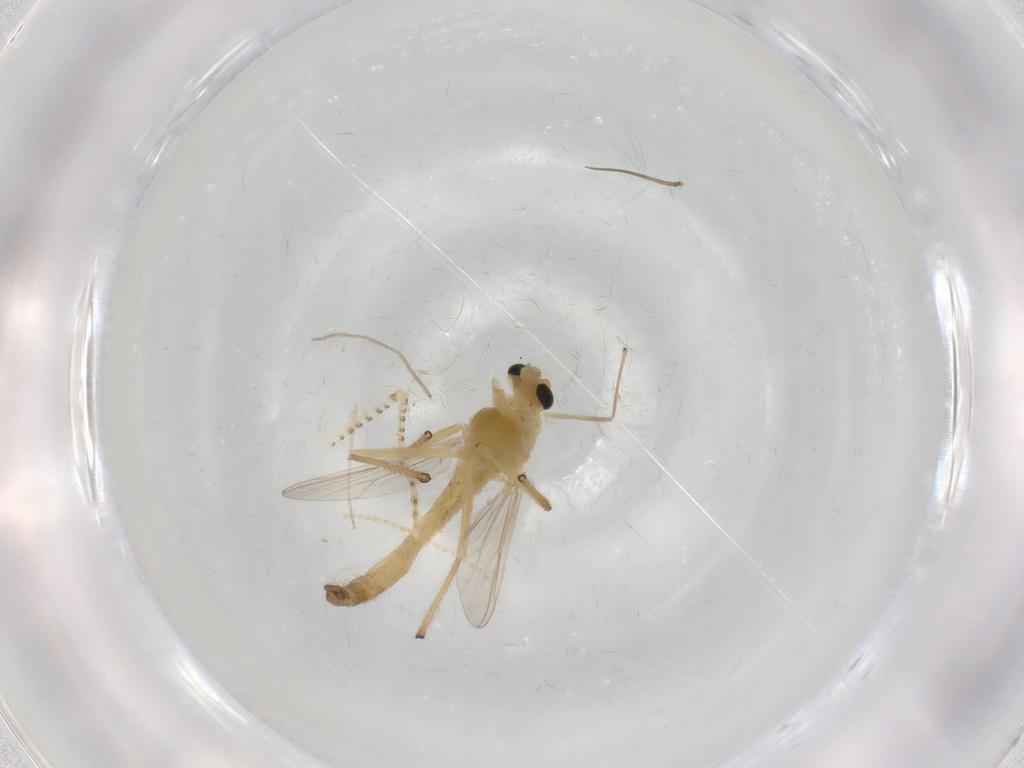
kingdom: Animalia
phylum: Arthropoda
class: Insecta
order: Diptera
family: Chironomidae
